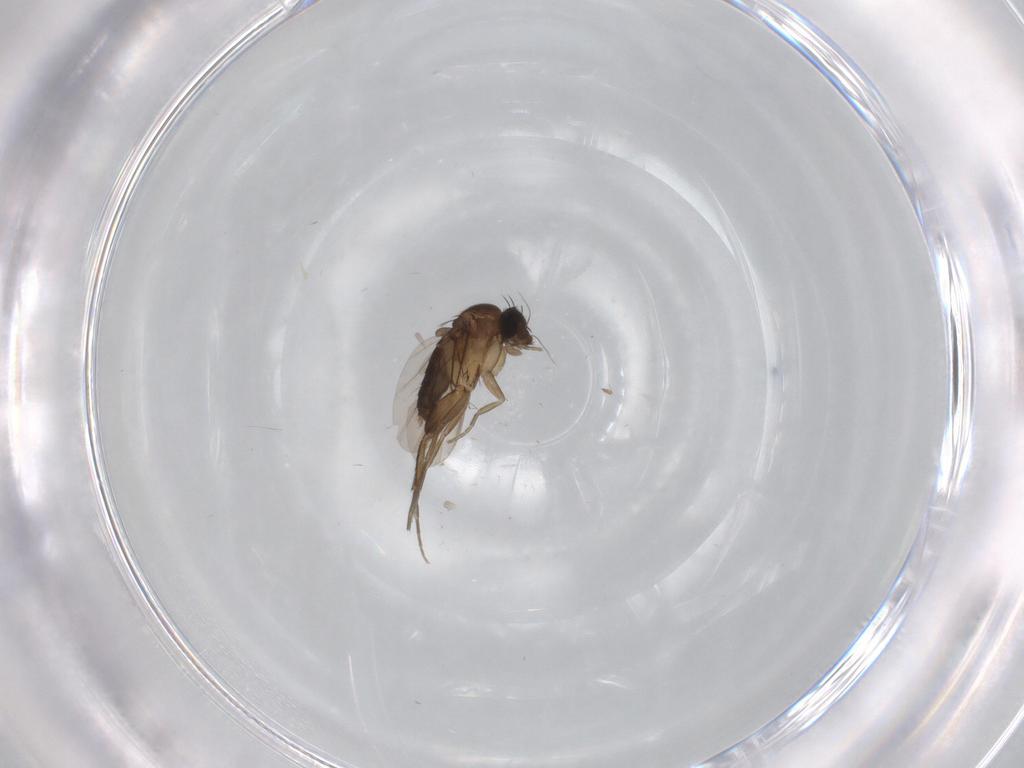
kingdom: Animalia
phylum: Arthropoda
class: Insecta
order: Diptera
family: Phoridae
